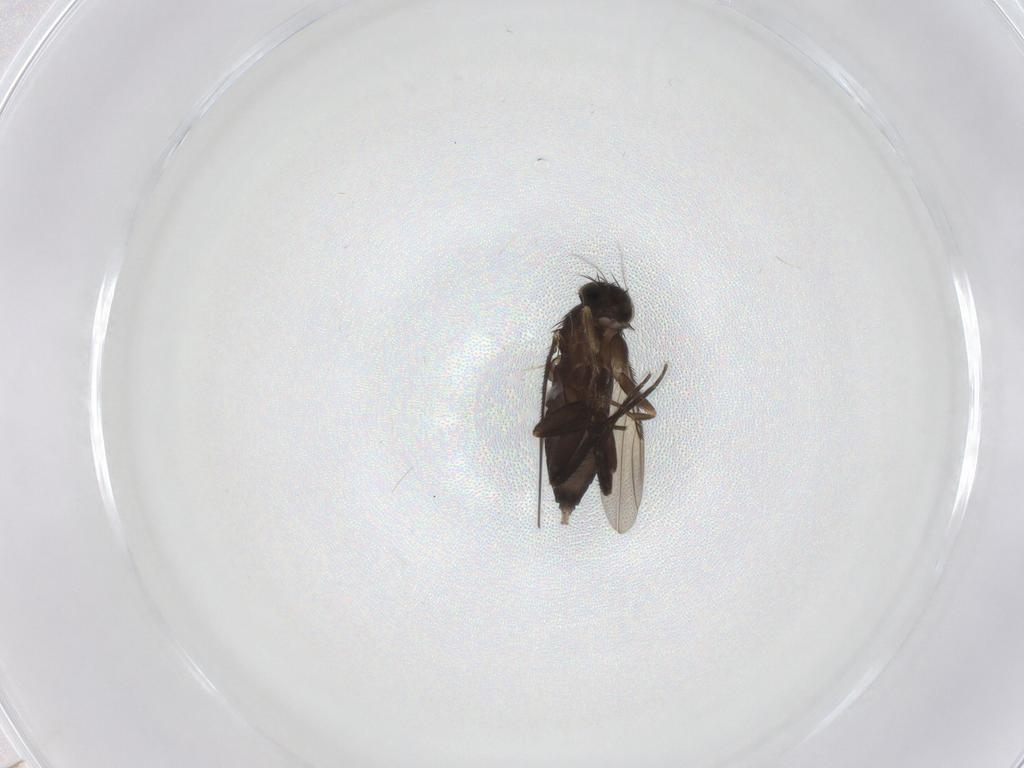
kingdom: Animalia
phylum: Arthropoda
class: Insecta
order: Diptera
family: Phoridae
